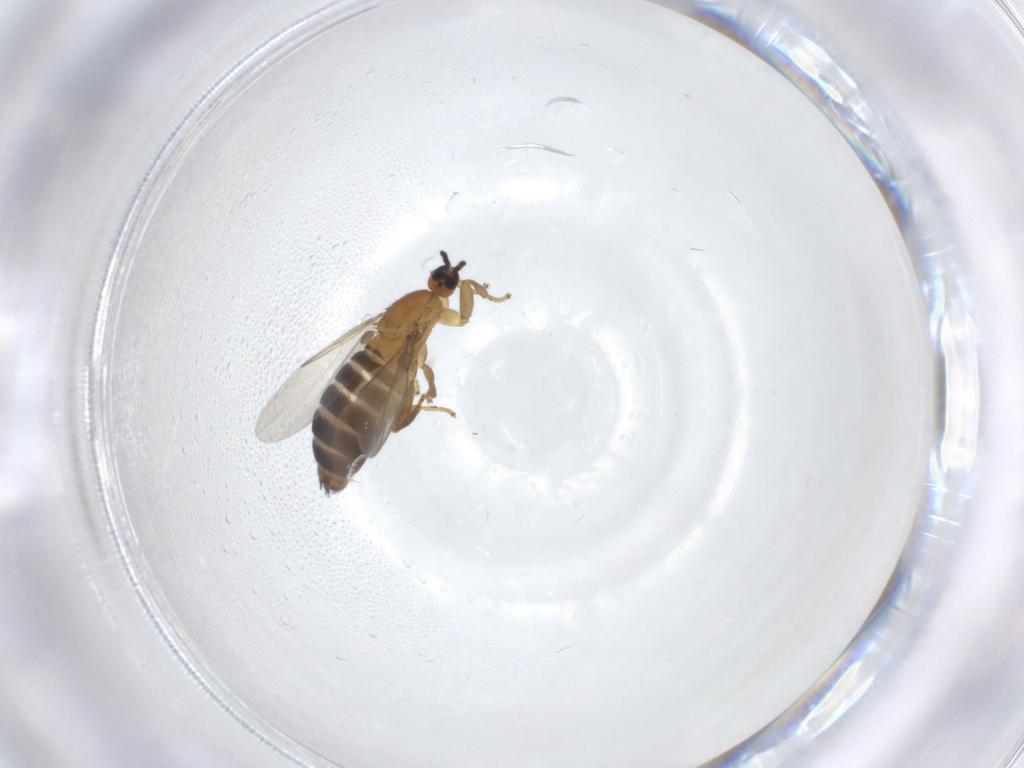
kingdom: Animalia
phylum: Arthropoda
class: Insecta
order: Diptera
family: Scatopsidae
